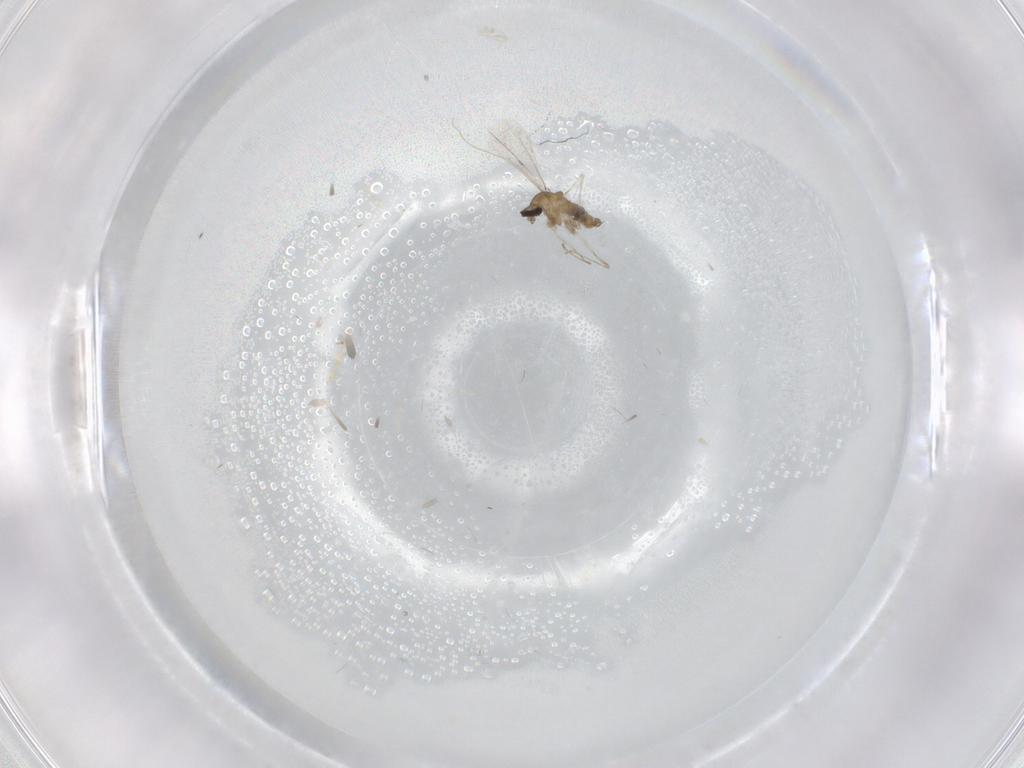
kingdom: Animalia
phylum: Arthropoda
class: Insecta
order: Diptera
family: Cecidomyiidae
